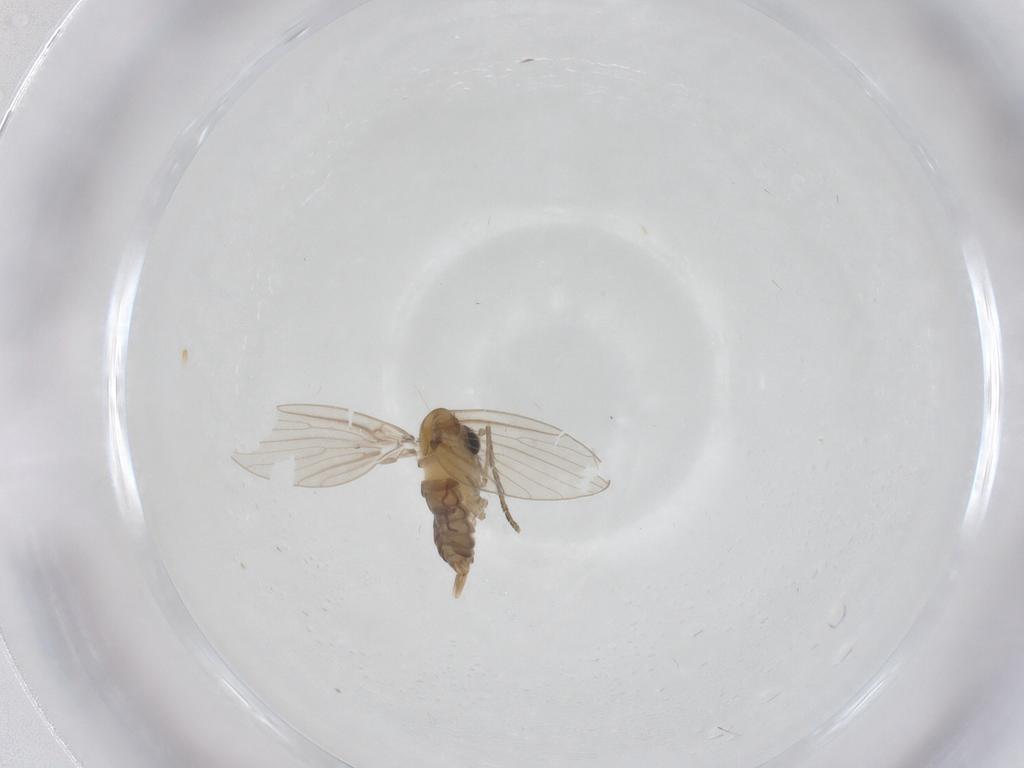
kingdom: Animalia
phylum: Arthropoda
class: Insecta
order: Diptera
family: Psychodidae
